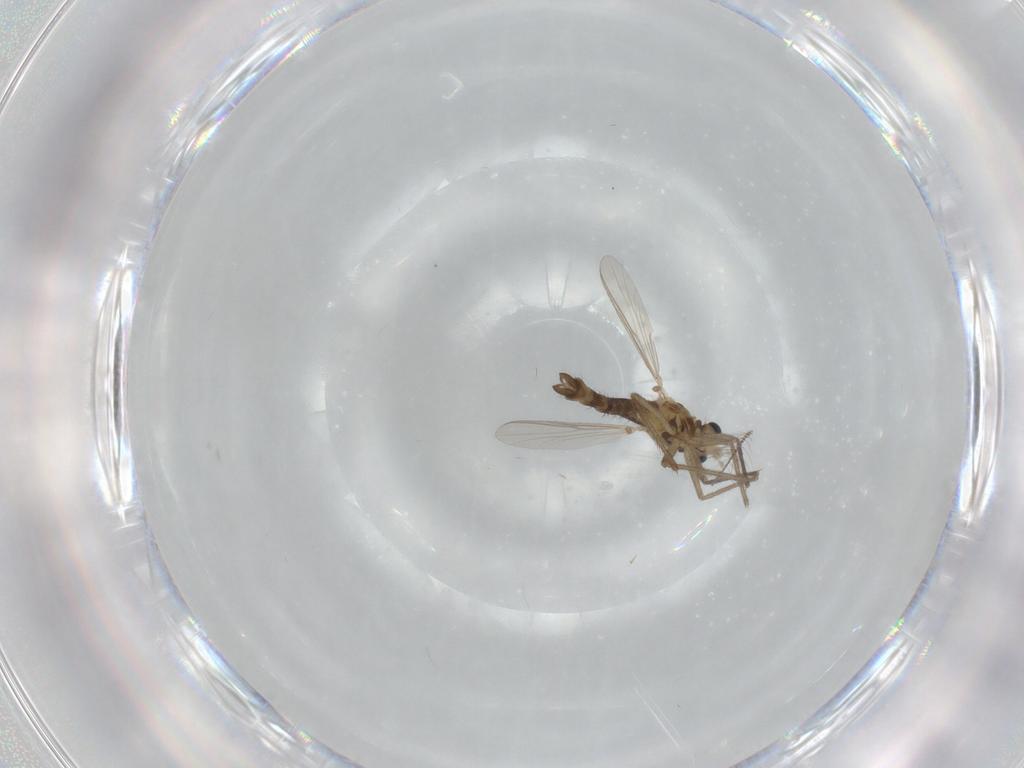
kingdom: Animalia
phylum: Arthropoda
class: Insecta
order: Diptera
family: Chironomidae
